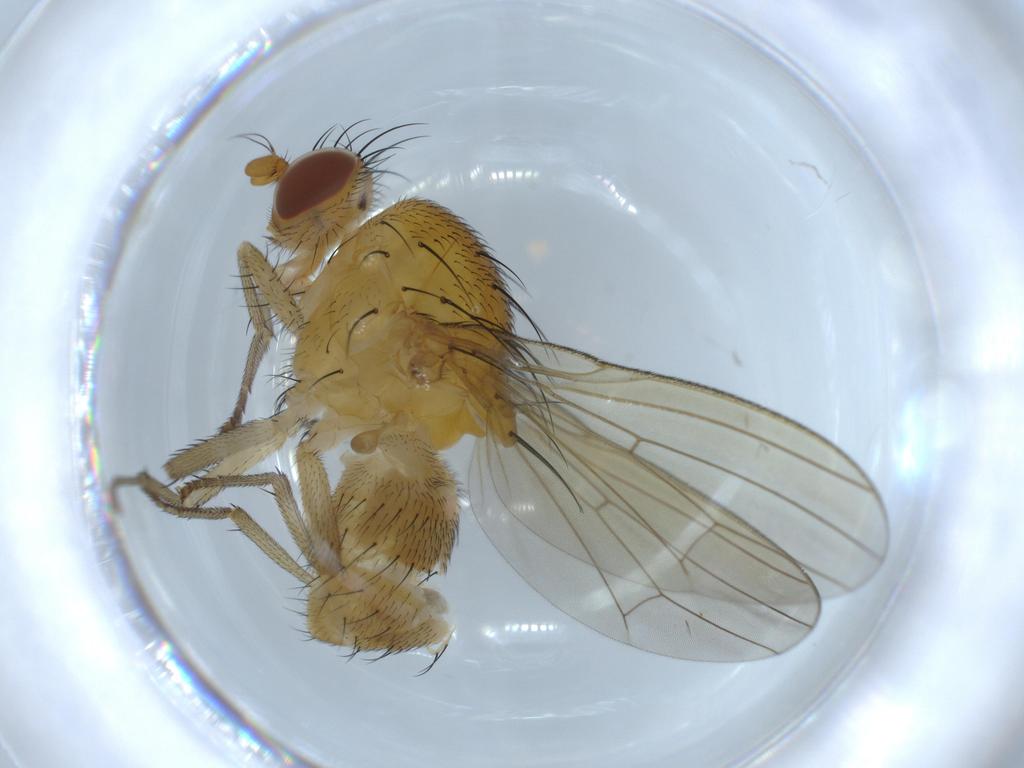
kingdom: Animalia
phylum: Arthropoda
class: Insecta
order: Diptera
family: Lauxaniidae
